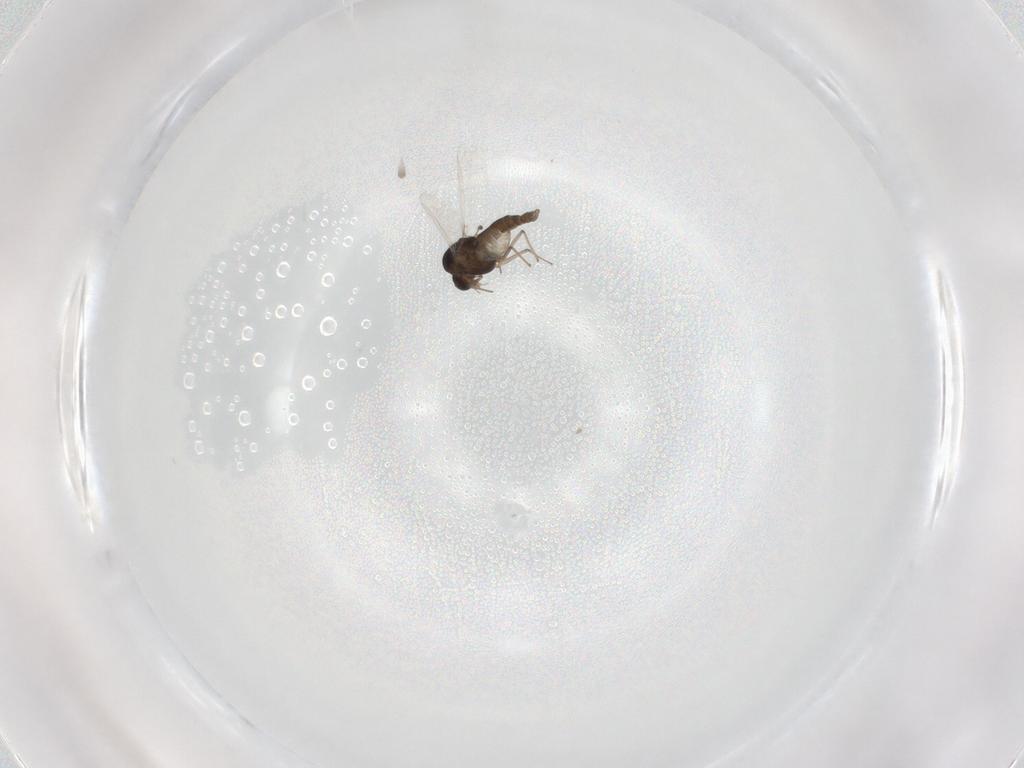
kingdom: Animalia
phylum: Arthropoda
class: Insecta
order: Diptera
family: Chironomidae
